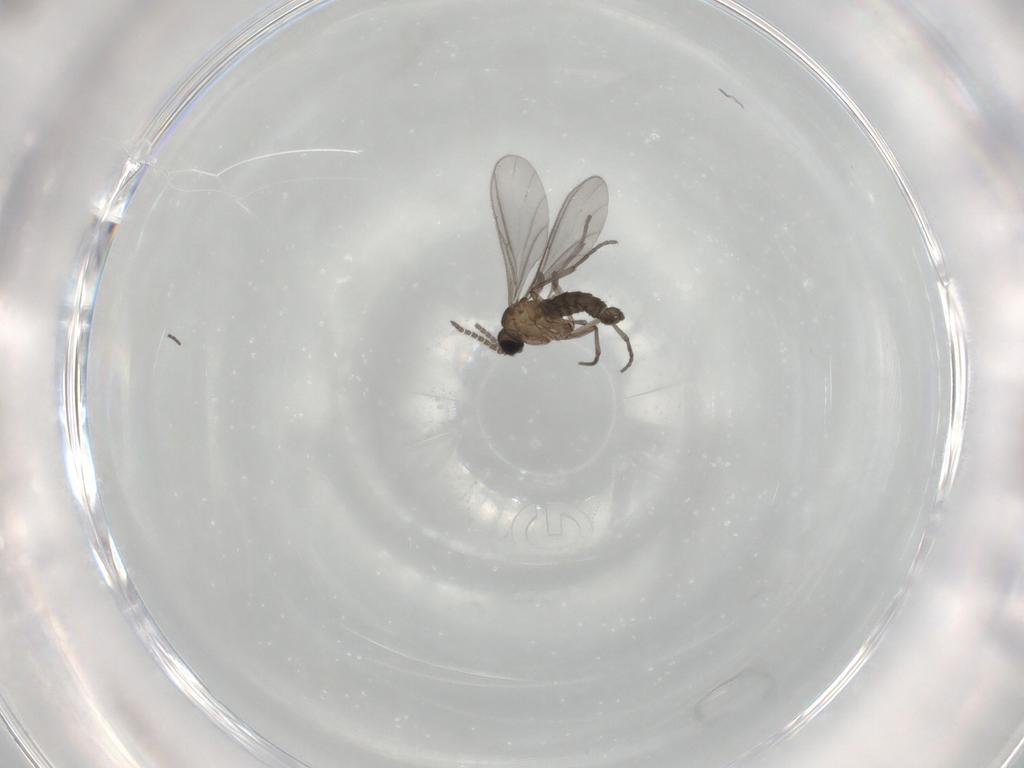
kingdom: Animalia
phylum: Arthropoda
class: Insecta
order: Diptera
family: Sciaridae
